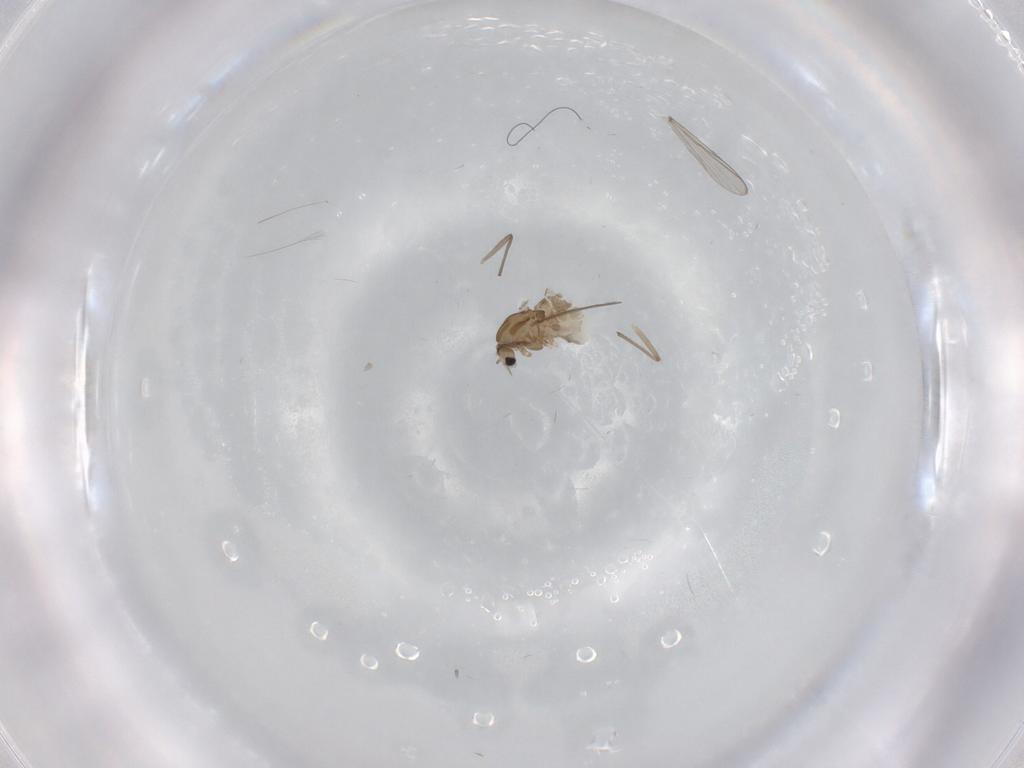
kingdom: Animalia
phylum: Arthropoda
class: Insecta
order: Diptera
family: Chironomidae
